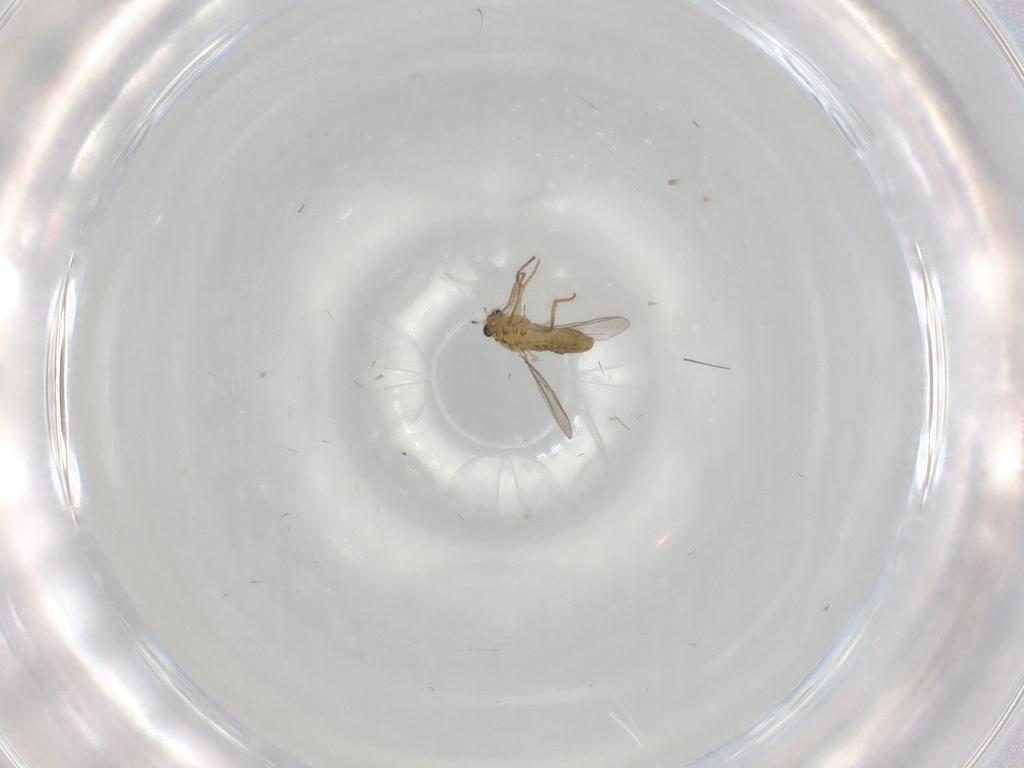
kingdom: Animalia
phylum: Arthropoda
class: Insecta
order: Diptera
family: Chironomidae
